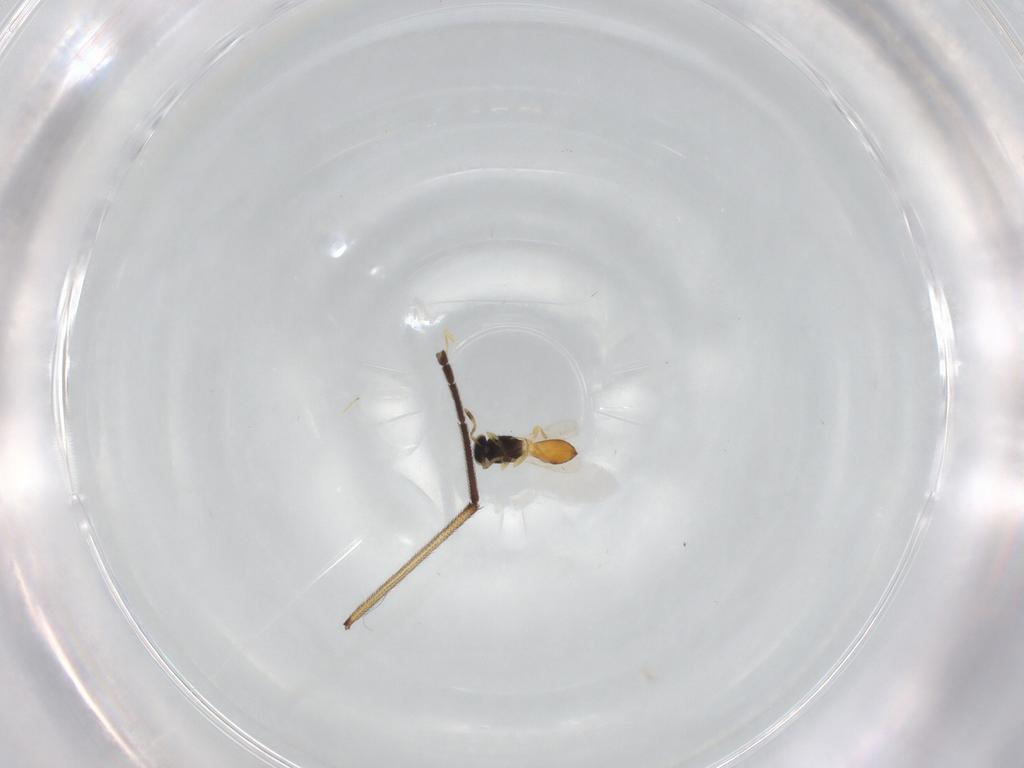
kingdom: Animalia
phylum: Arthropoda
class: Insecta
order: Hymenoptera
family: Scelionidae
